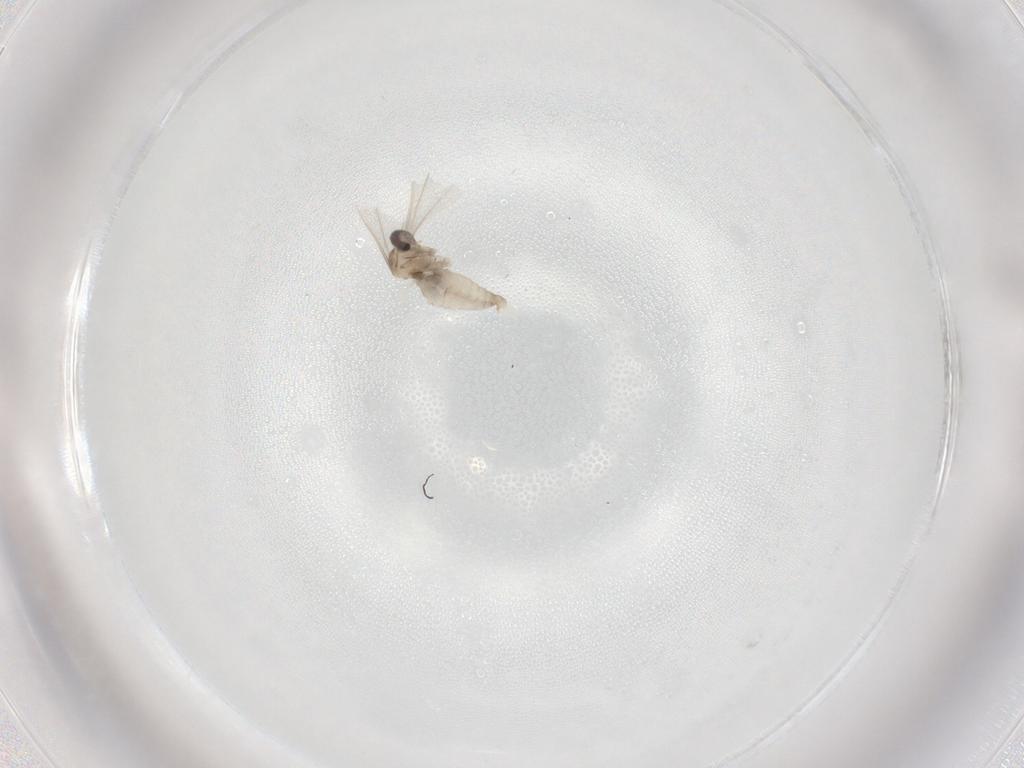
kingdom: Animalia
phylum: Arthropoda
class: Insecta
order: Diptera
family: Cecidomyiidae
